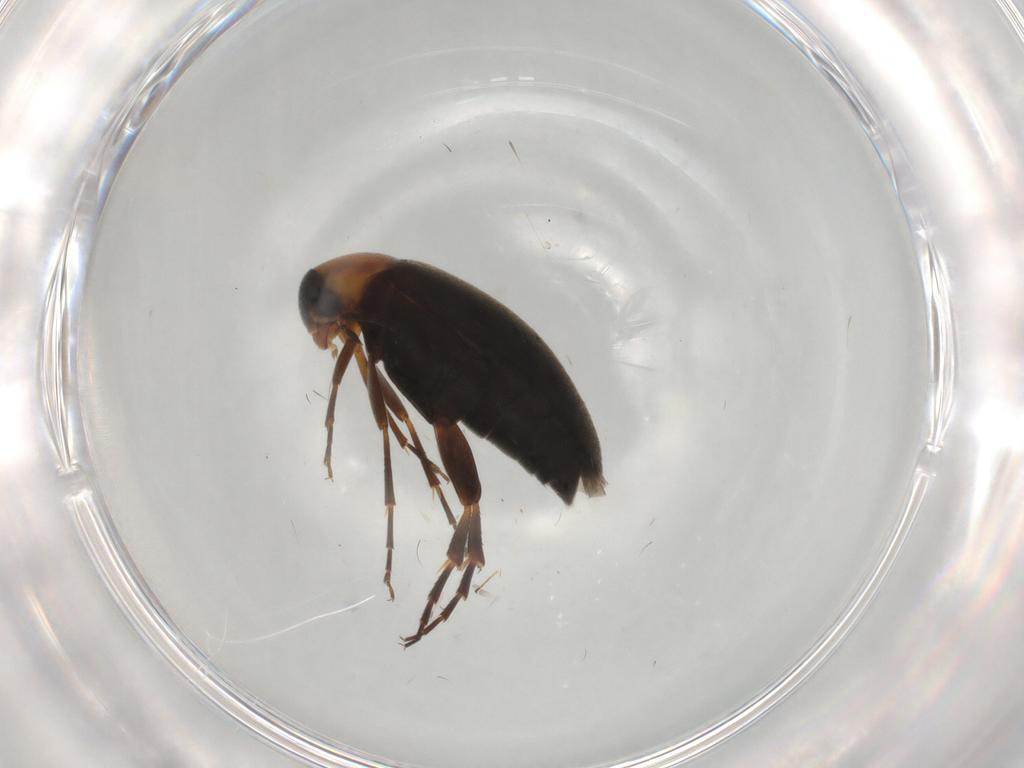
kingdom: Animalia
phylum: Arthropoda
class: Insecta
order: Coleoptera
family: Scraptiidae
